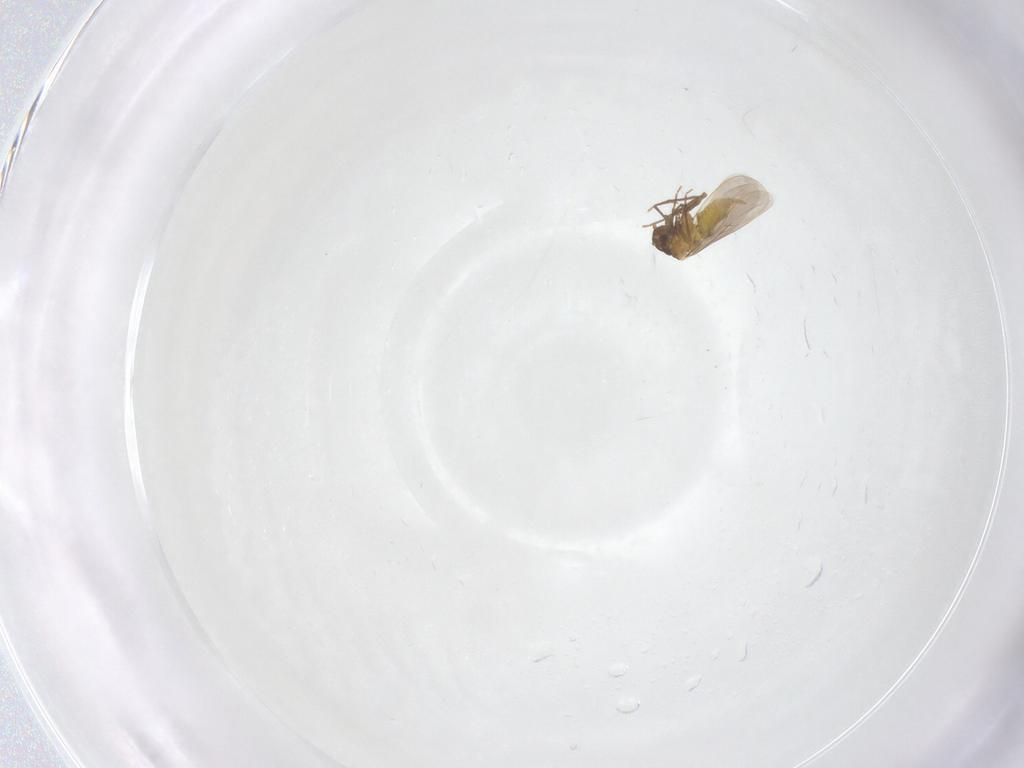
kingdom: Animalia
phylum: Arthropoda
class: Insecta
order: Hemiptera
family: Aleyrodidae
